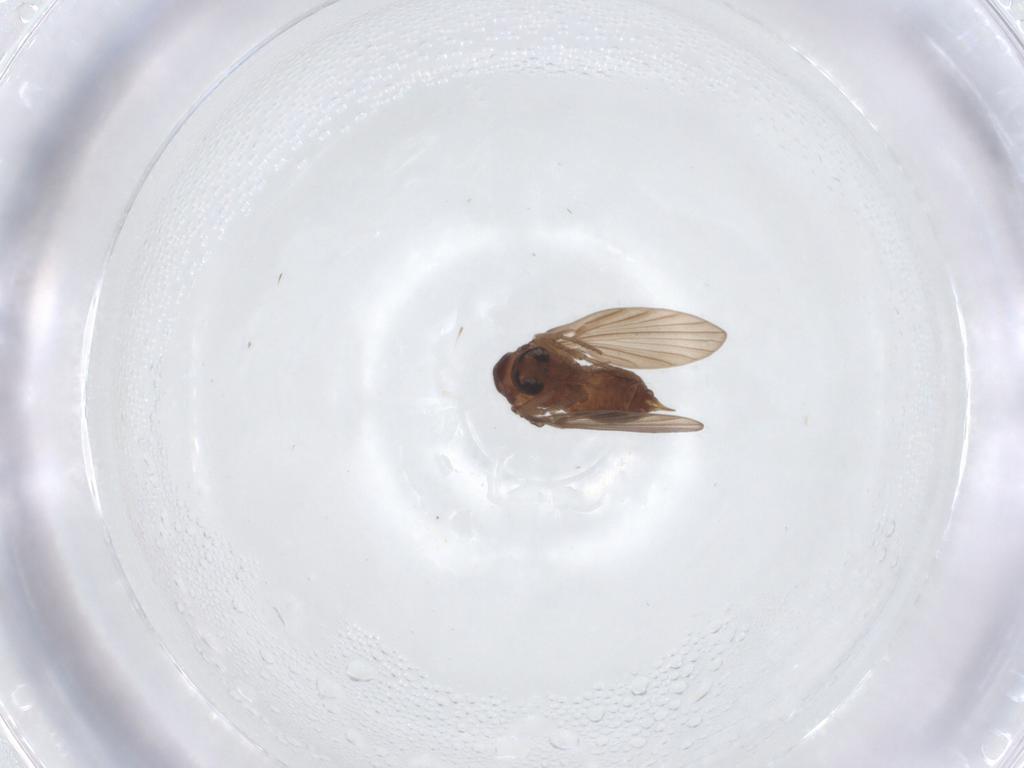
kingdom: Animalia
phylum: Arthropoda
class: Insecta
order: Diptera
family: Psychodidae
